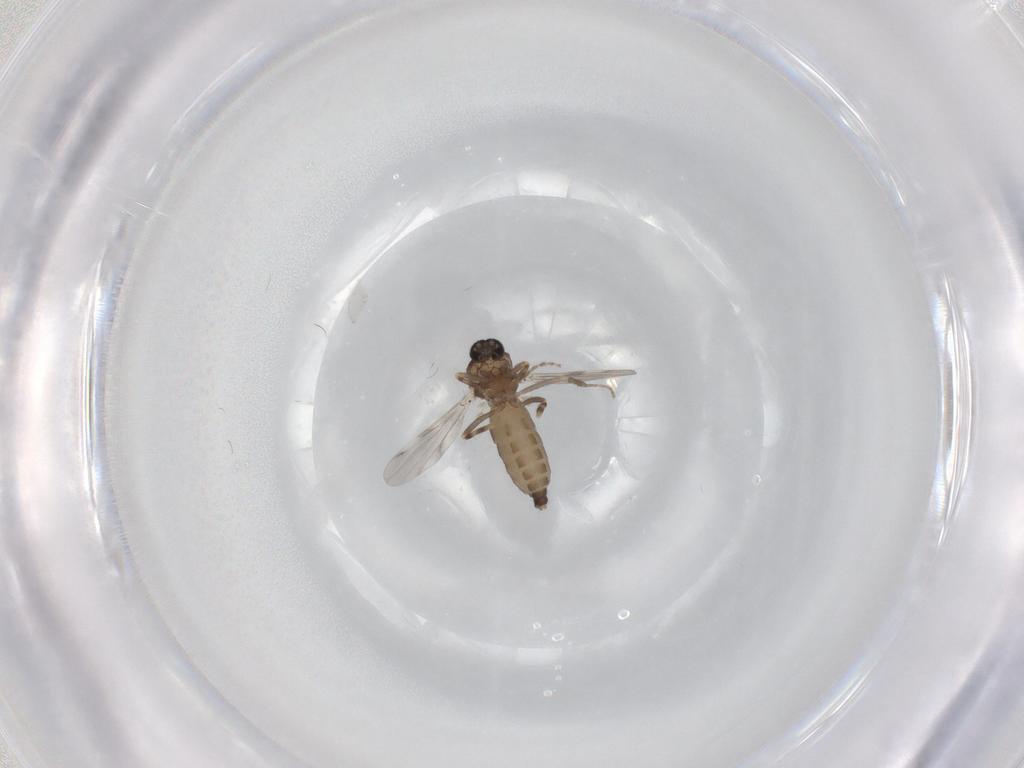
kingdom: Animalia
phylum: Arthropoda
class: Insecta
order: Diptera
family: Ceratopogonidae
